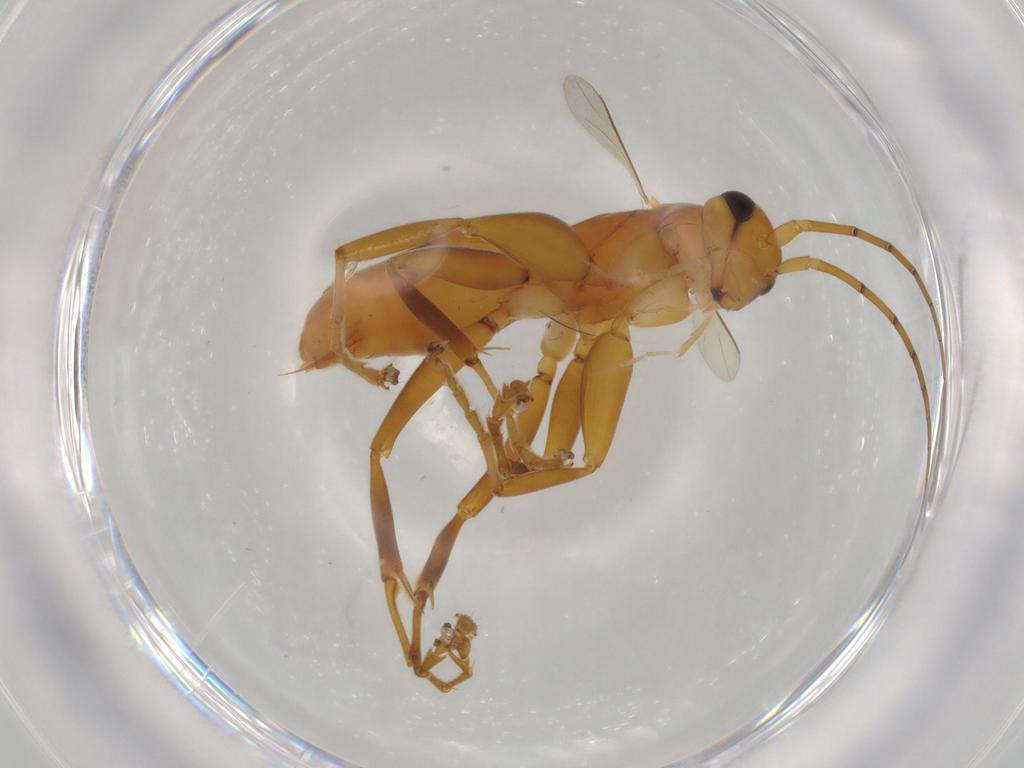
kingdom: Animalia
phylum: Arthropoda
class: Insecta
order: Hymenoptera
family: Rhopalosomatidae
